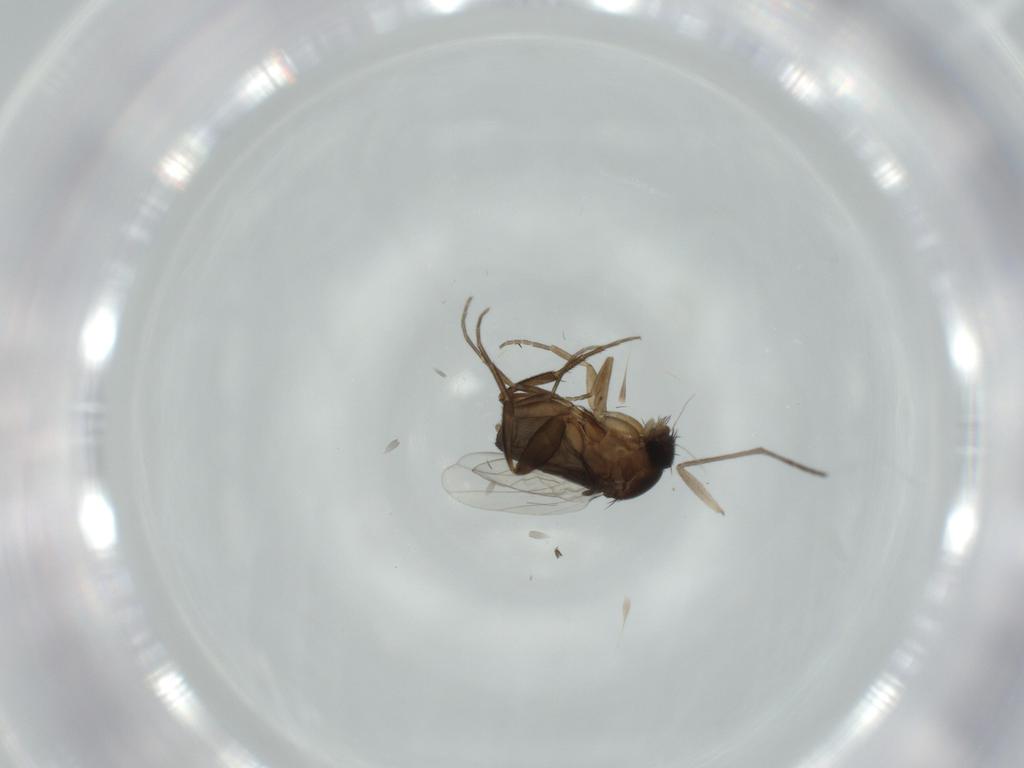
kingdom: Animalia
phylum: Arthropoda
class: Insecta
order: Diptera
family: Phoridae
